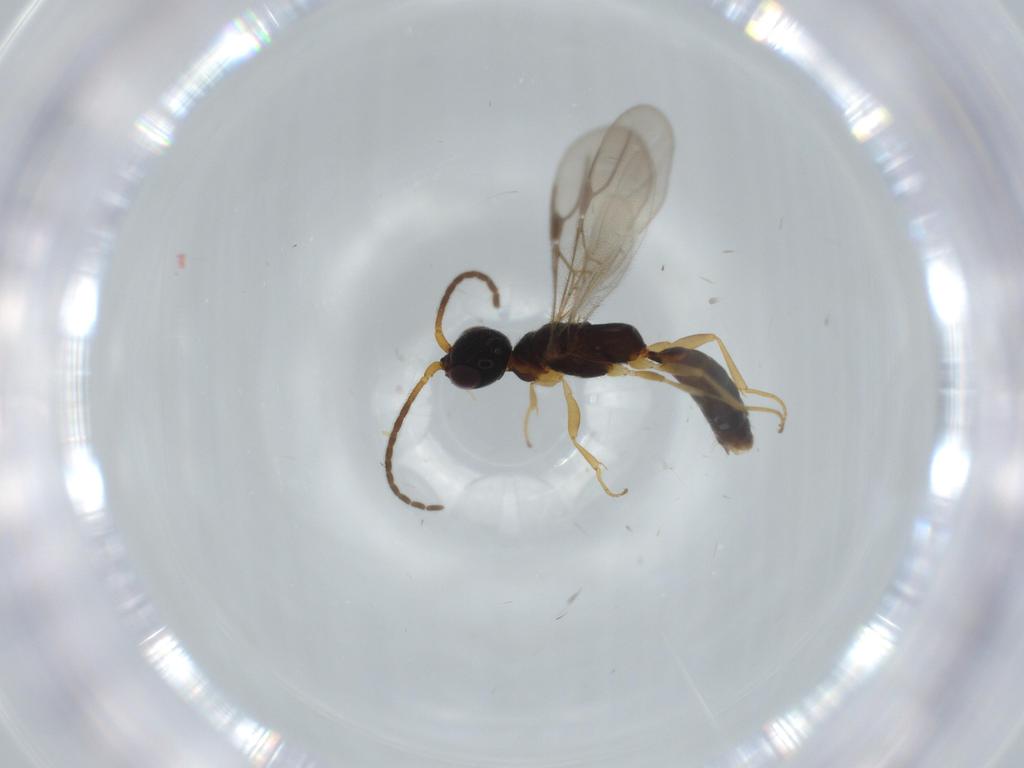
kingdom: Animalia
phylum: Arthropoda
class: Insecta
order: Hymenoptera
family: Bethylidae
